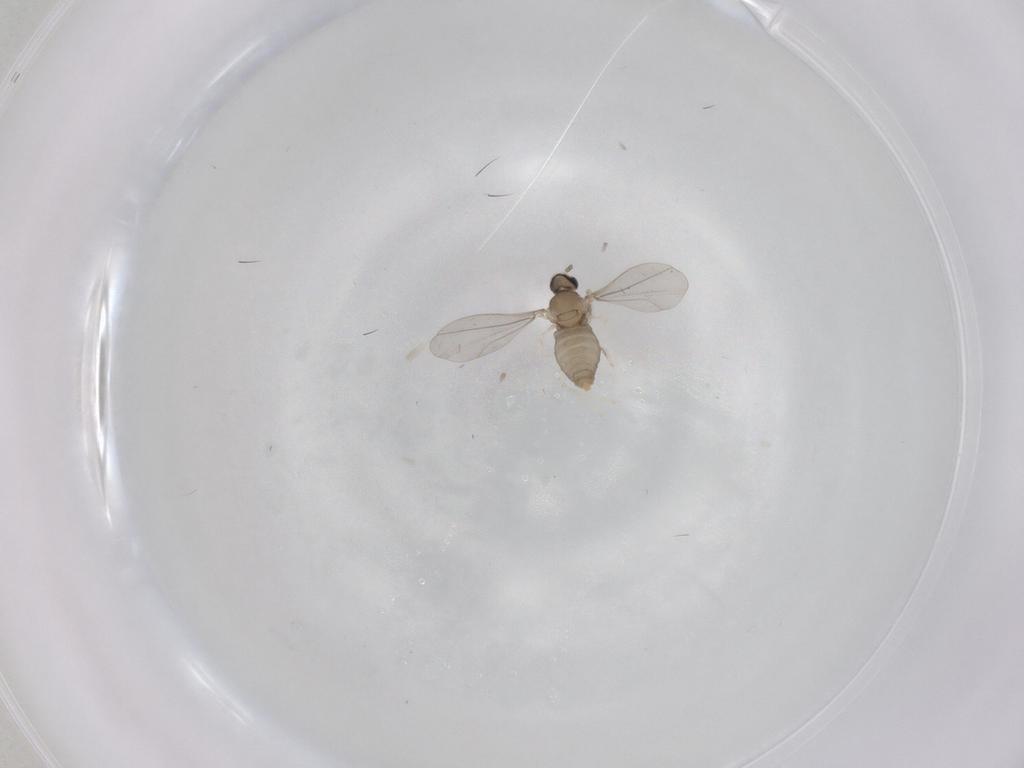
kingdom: Animalia
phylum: Arthropoda
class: Insecta
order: Diptera
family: Cecidomyiidae
